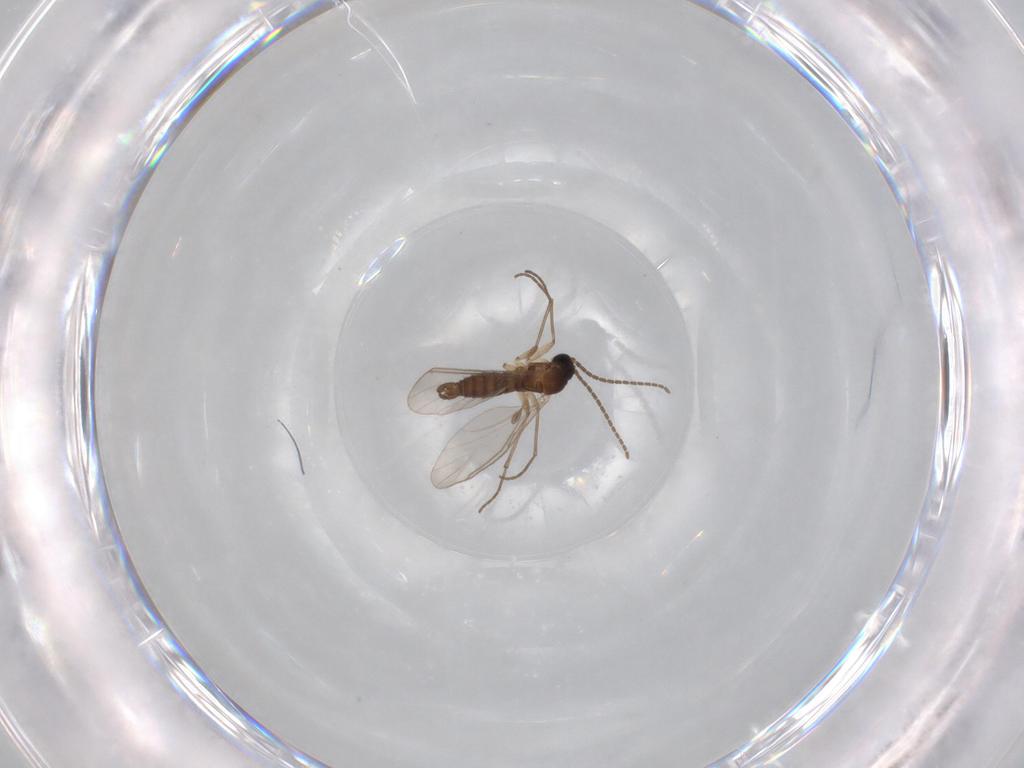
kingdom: Animalia
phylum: Arthropoda
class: Insecta
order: Diptera
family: Sciaridae
